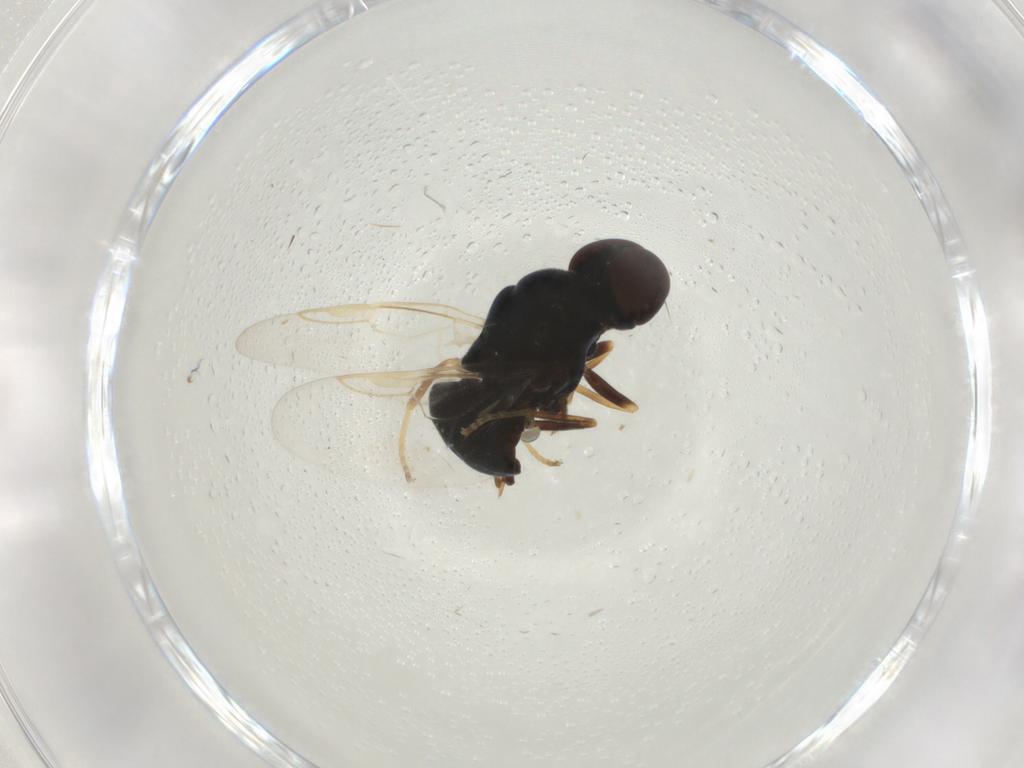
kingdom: Animalia
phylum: Arthropoda
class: Insecta
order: Diptera
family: Stratiomyidae
